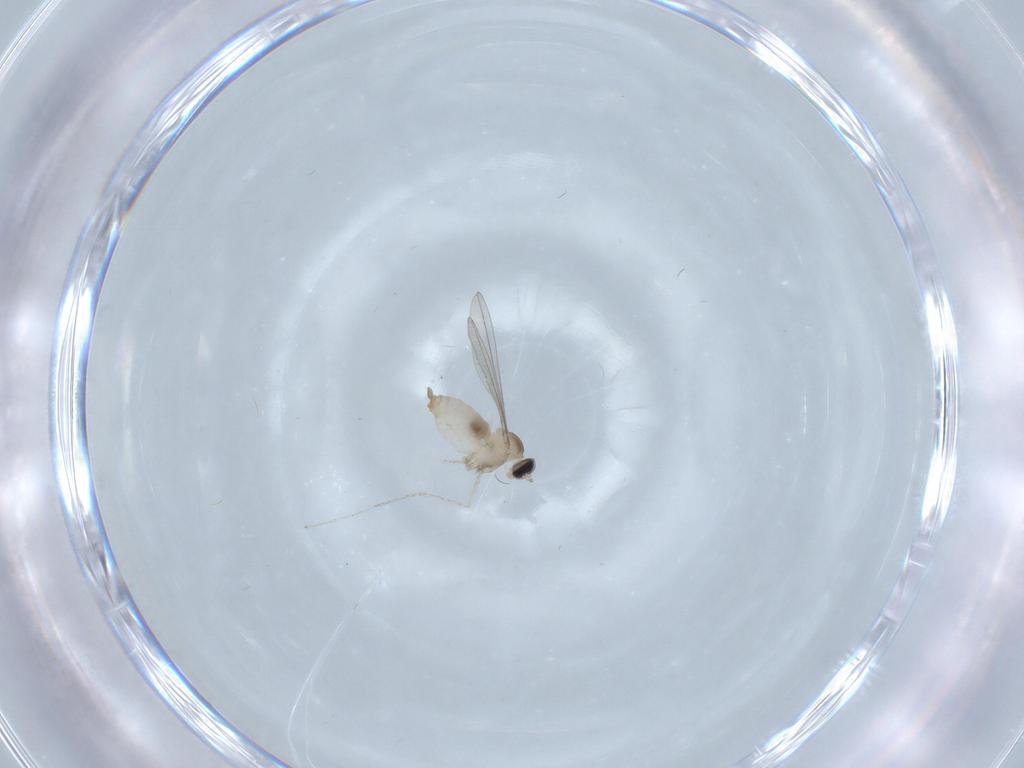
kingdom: Animalia
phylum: Arthropoda
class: Insecta
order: Diptera
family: Cecidomyiidae
